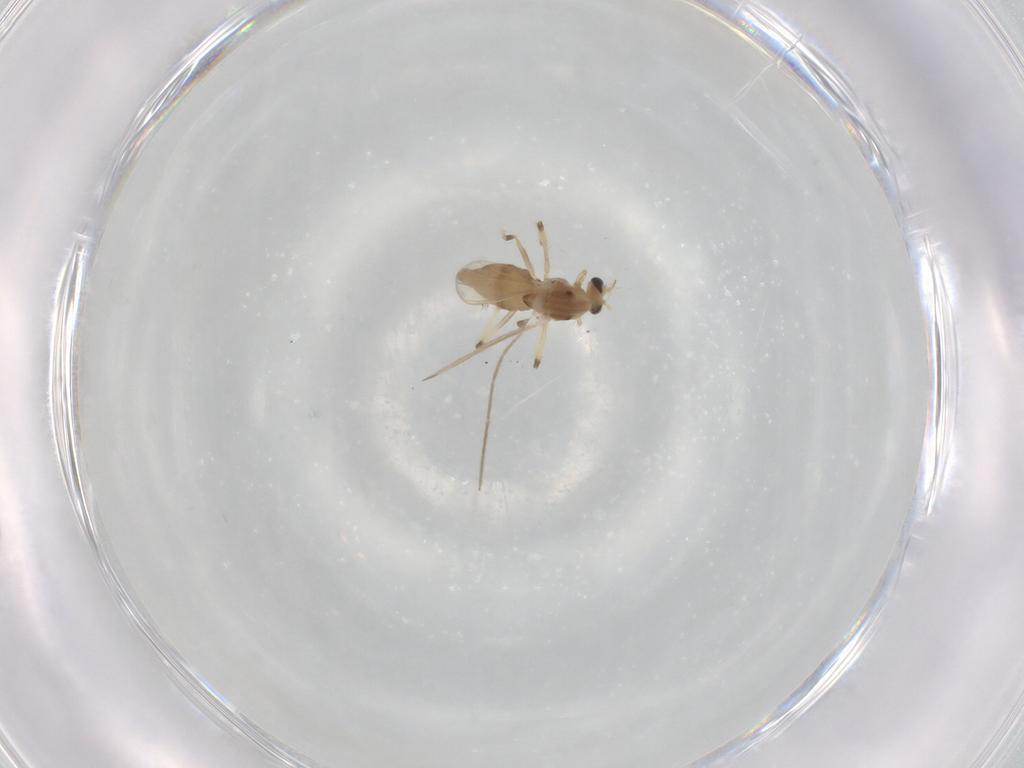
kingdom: Animalia
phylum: Arthropoda
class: Insecta
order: Diptera
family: Chironomidae
